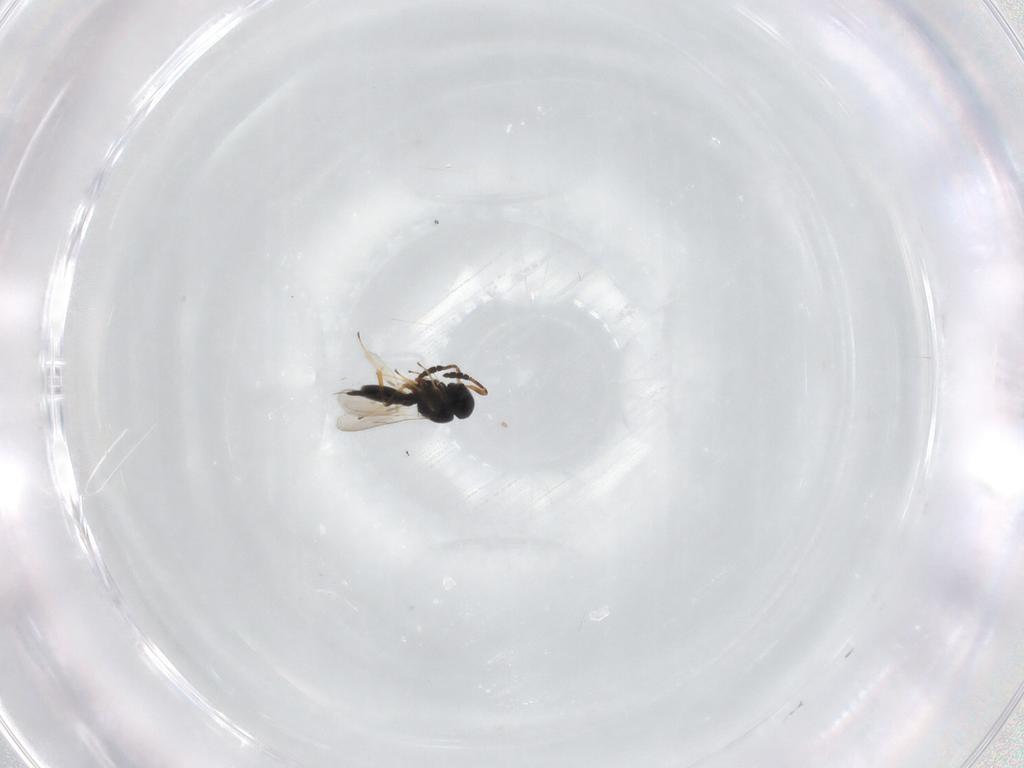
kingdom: Animalia
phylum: Arthropoda
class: Insecta
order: Hymenoptera
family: Scelionidae
